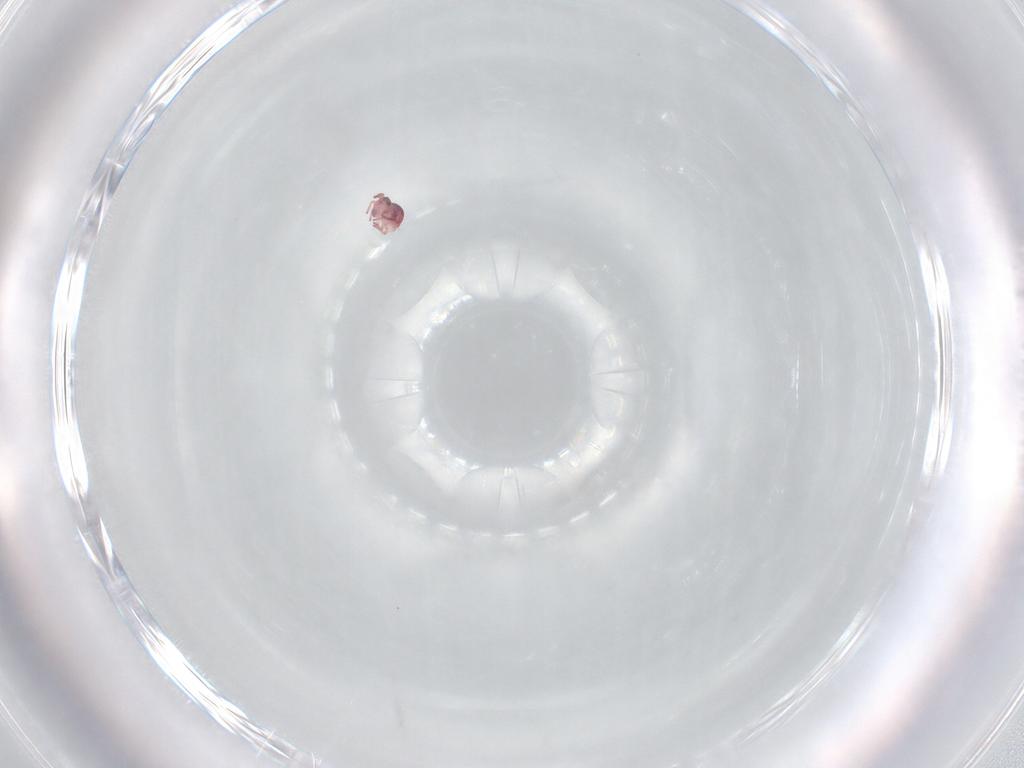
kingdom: Animalia
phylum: Arthropoda
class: Collembola
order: Symphypleona
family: Sminthurididae
